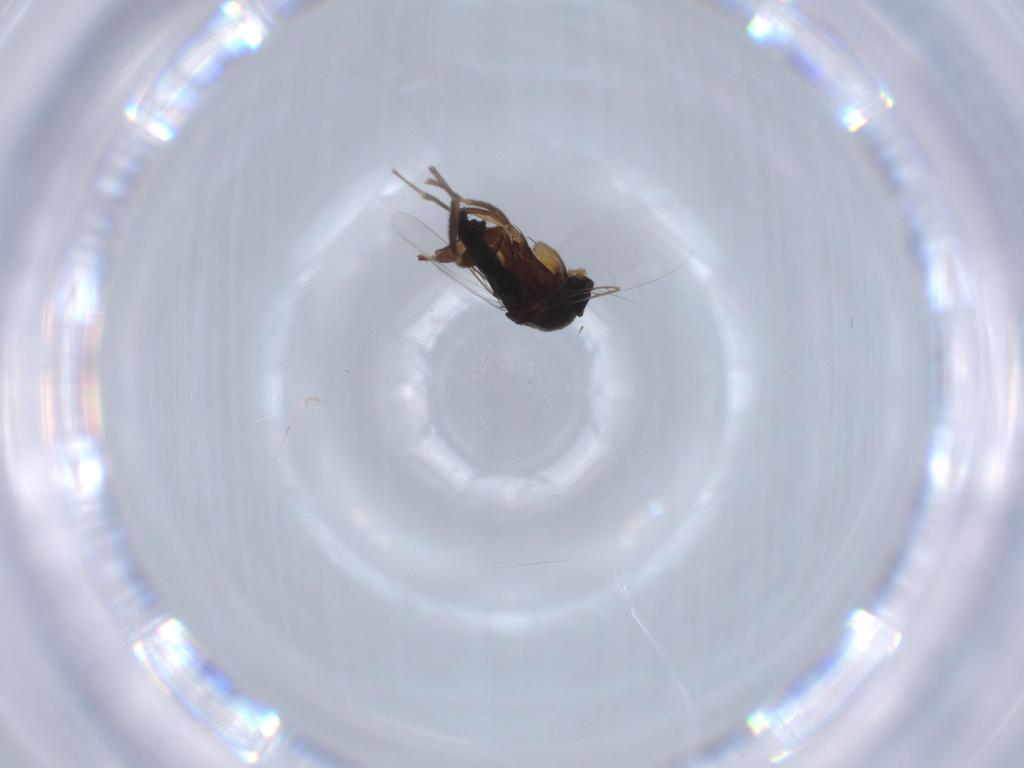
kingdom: Animalia
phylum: Arthropoda
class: Insecta
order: Diptera
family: Phoridae
